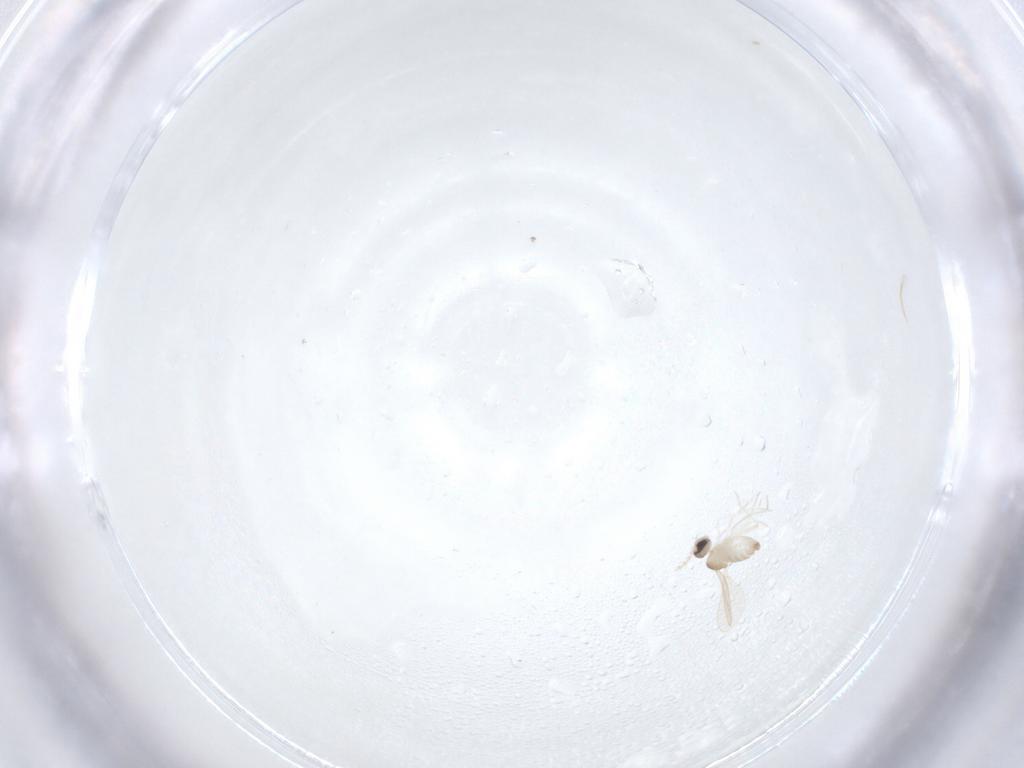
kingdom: Animalia
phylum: Arthropoda
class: Insecta
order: Diptera
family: Cecidomyiidae
